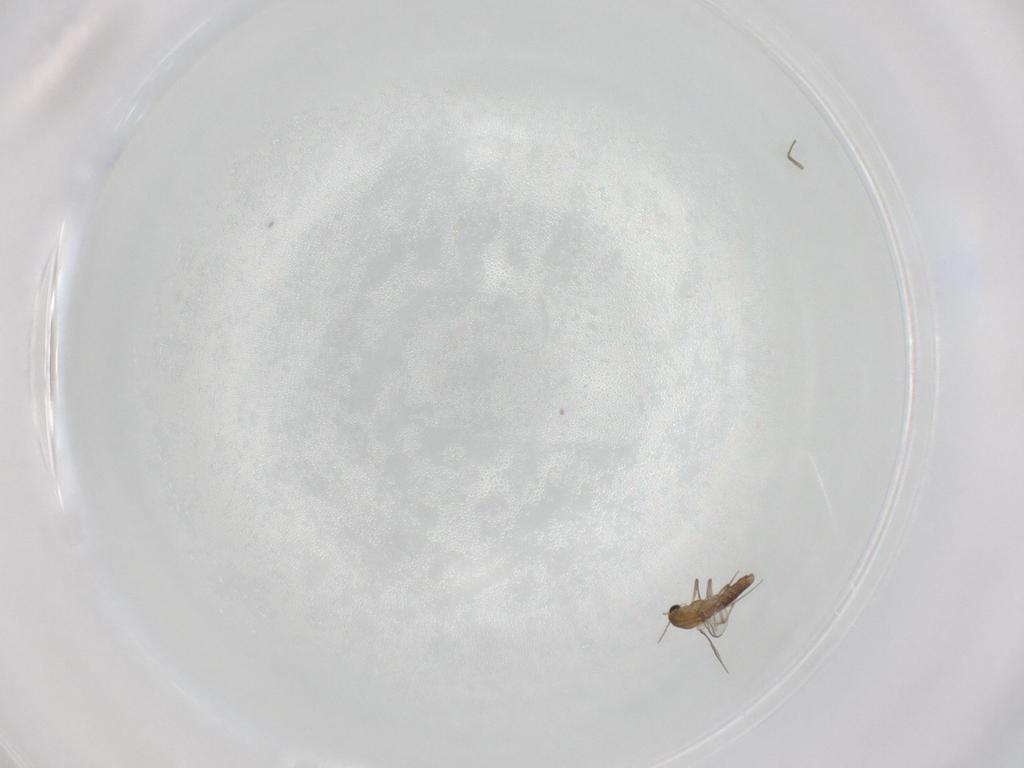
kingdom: Animalia
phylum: Arthropoda
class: Insecta
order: Diptera
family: Chironomidae
